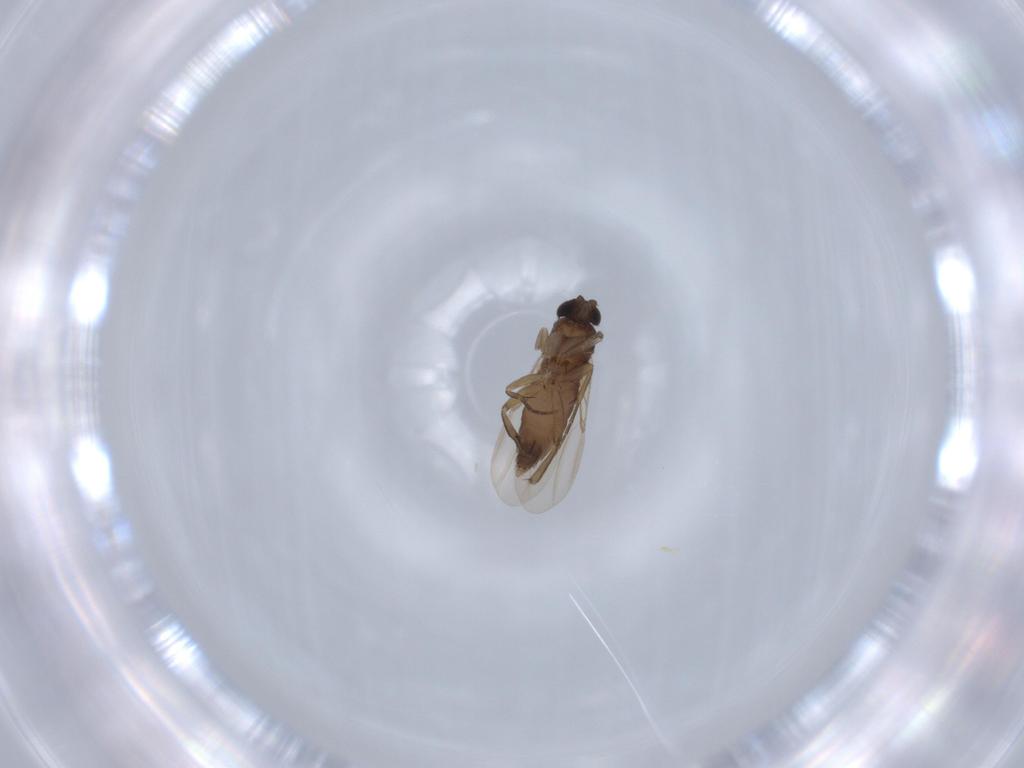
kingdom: Animalia
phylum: Arthropoda
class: Insecta
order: Diptera
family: Phoridae
